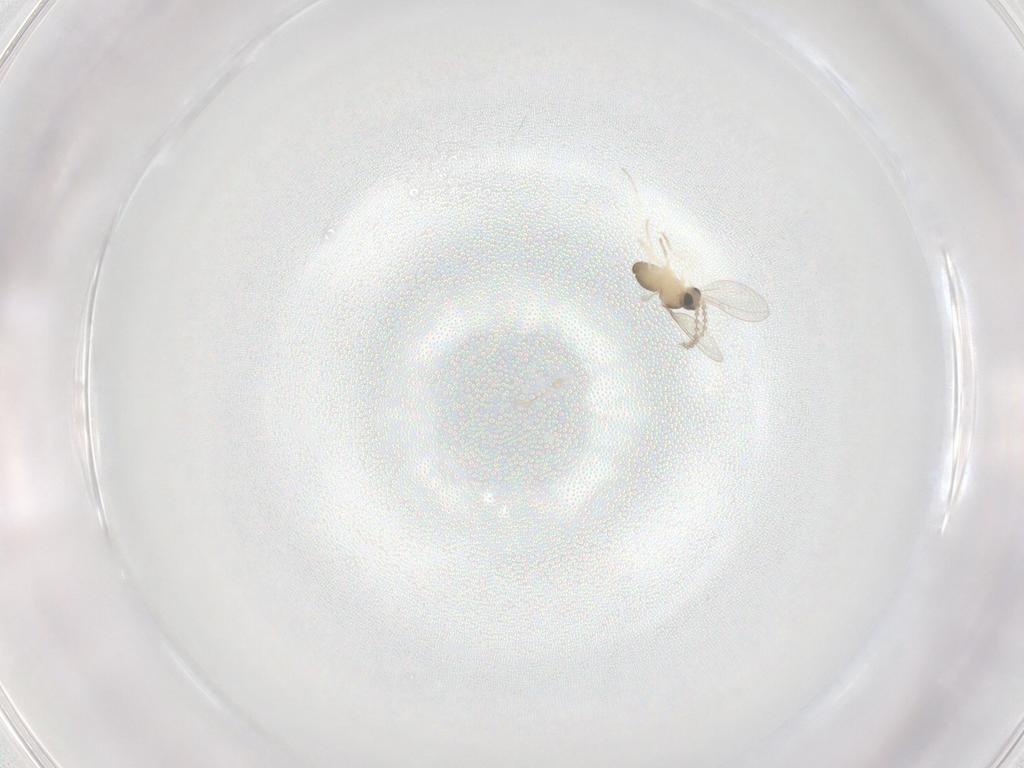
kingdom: Animalia
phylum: Arthropoda
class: Insecta
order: Diptera
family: Cecidomyiidae
